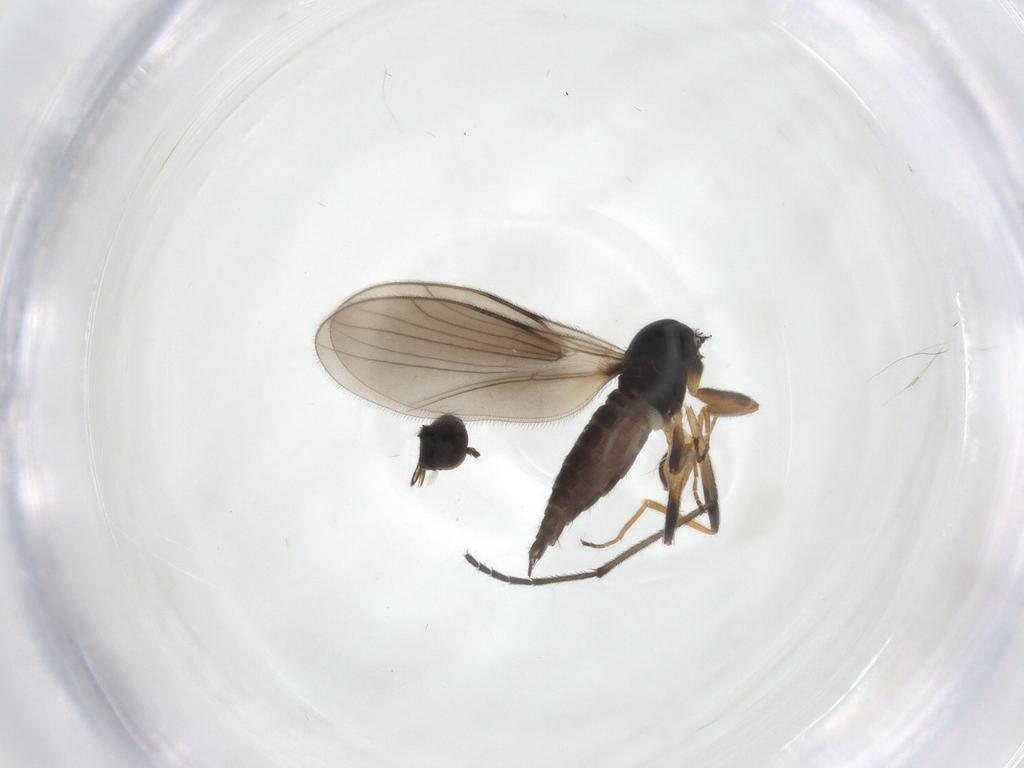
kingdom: Animalia
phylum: Arthropoda
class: Insecta
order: Diptera
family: Hybotidae
